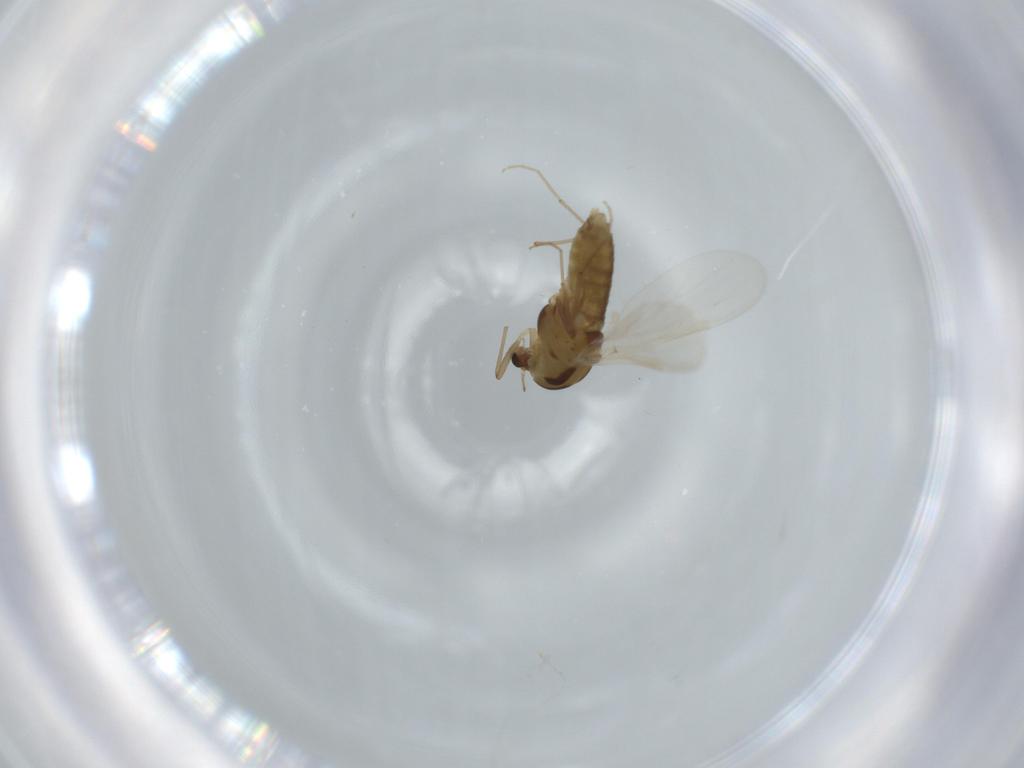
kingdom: Animalia
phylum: Arthropoda
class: Insecta
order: Diptera
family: Chironomidae
